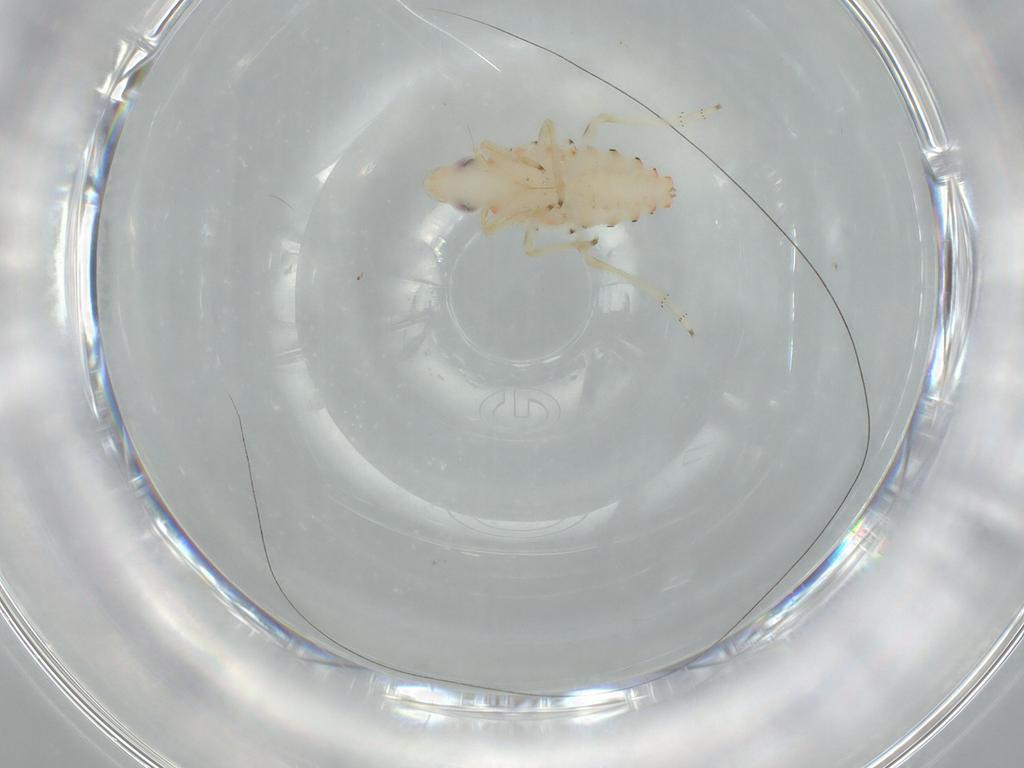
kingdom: Animalia
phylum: Arthropoda
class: Insecta
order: Hemiptera
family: Tropiduchidae
